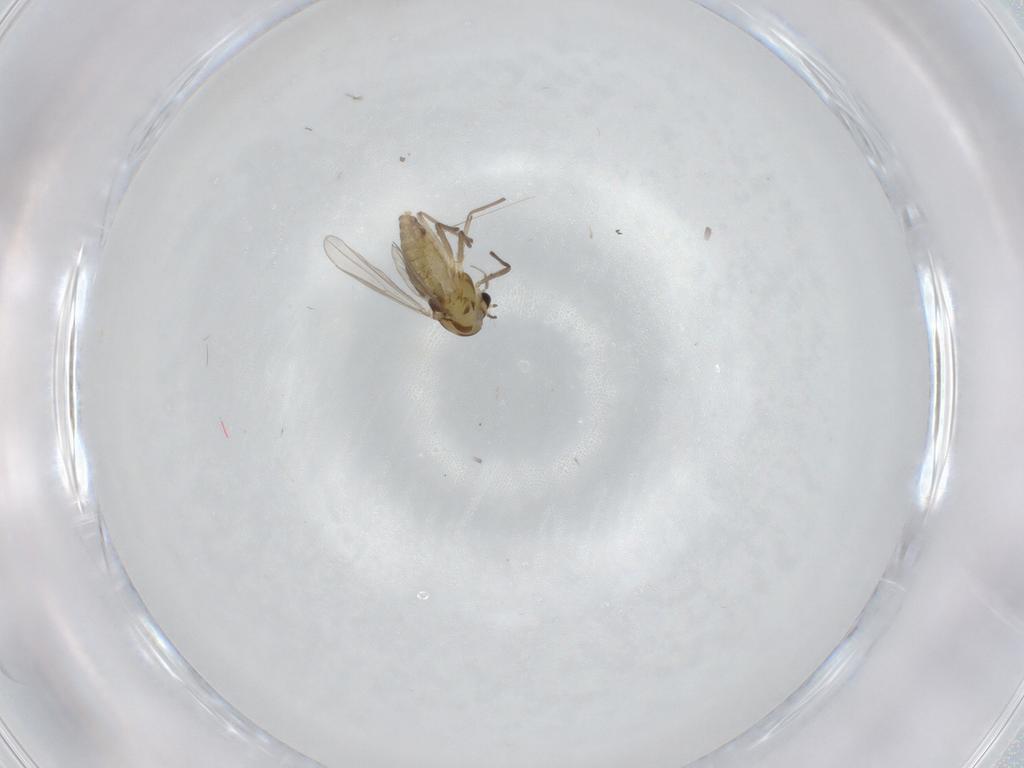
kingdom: Animalia
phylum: Arthropoda
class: Insecta
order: Diptera
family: Chironomidae
